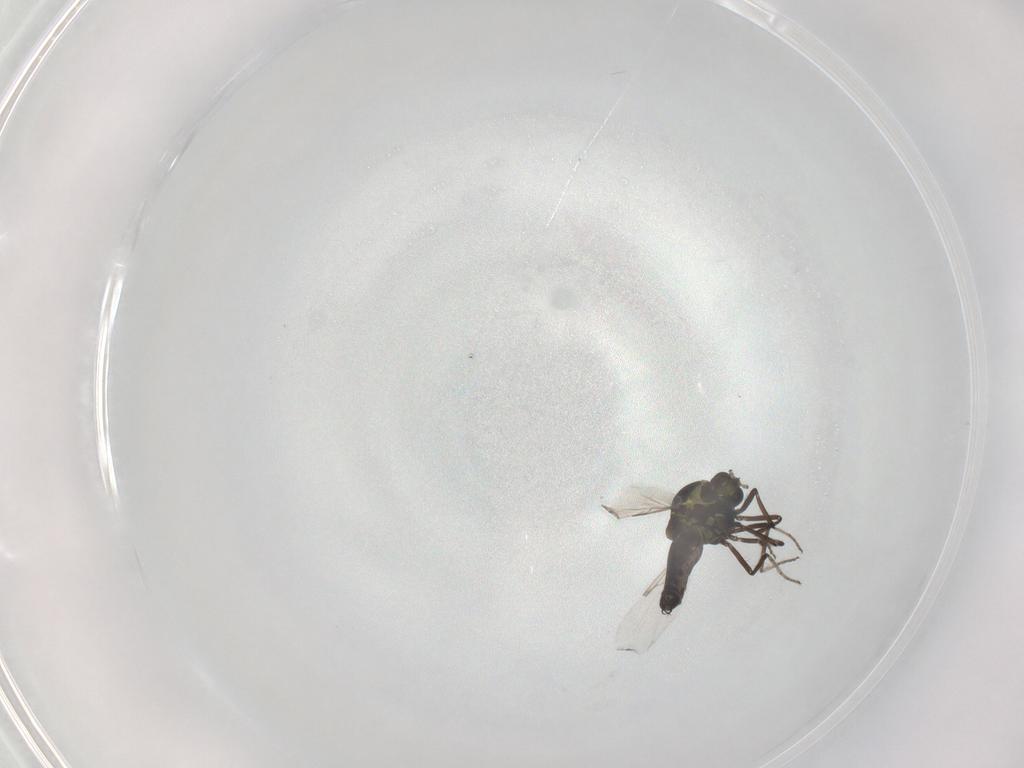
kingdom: Animalia
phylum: Arthropoda
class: Insecta
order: Diptera
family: Ceratopogonidae
